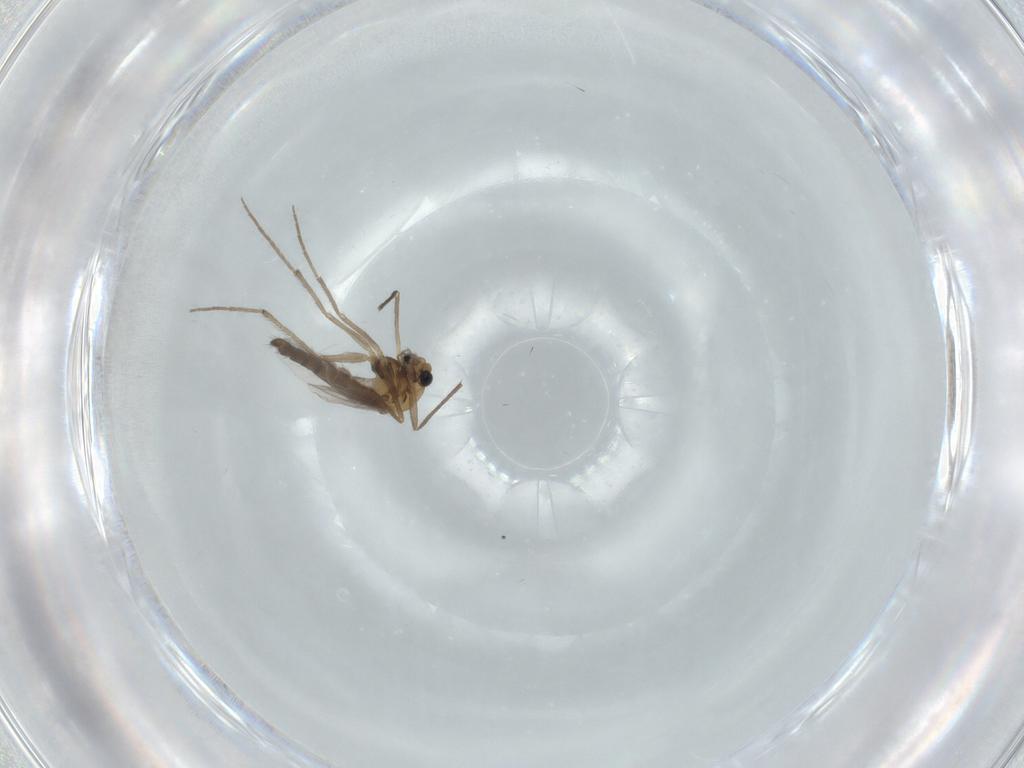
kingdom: Animalia
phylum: Arthropoda
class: Insecta
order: Diptera
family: Chironomidae
